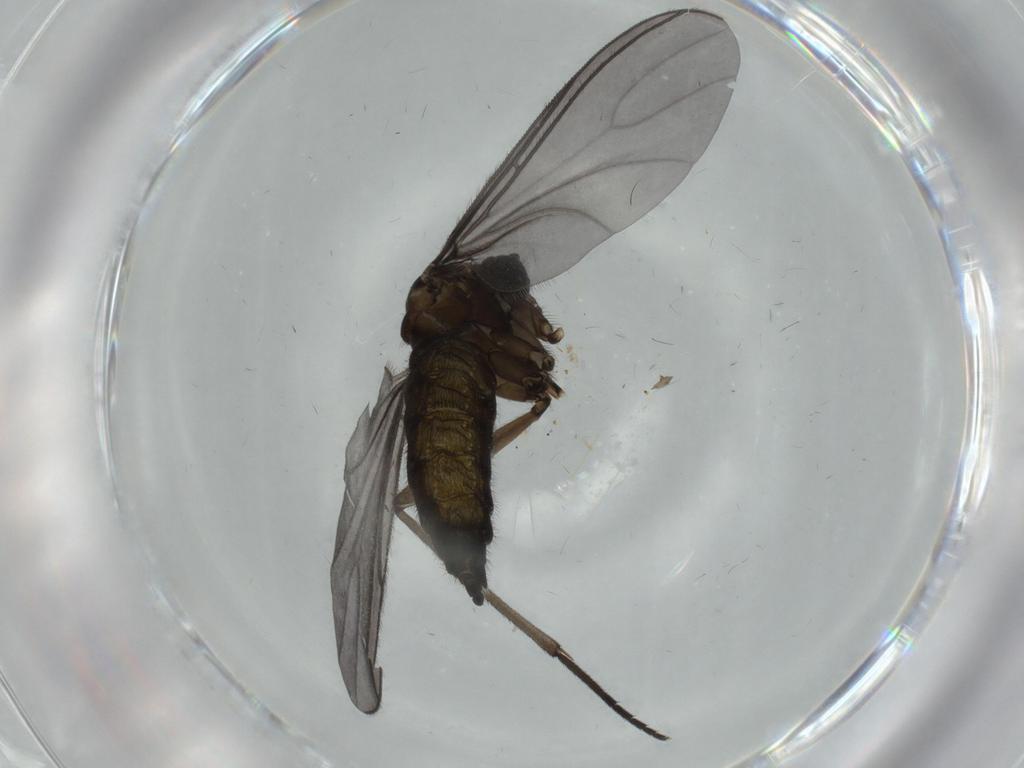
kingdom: Animalia
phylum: Arthropoda
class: Insecta
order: Diptera
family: Sciaridae
